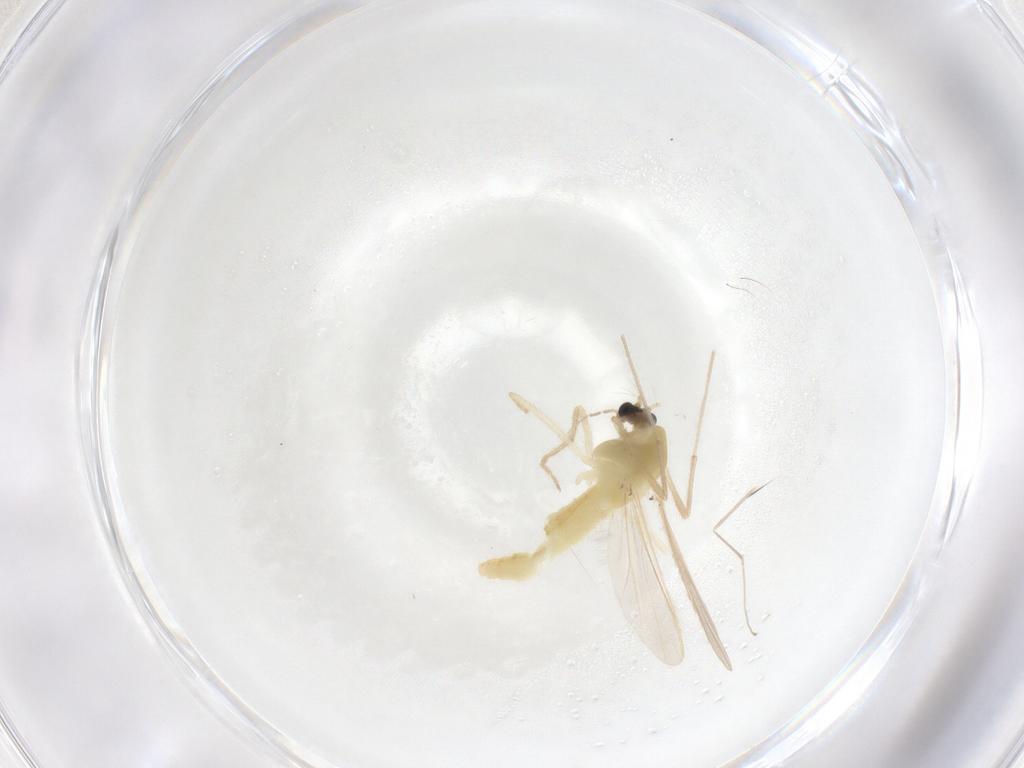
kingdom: Animalia
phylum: Arthropoda
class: Insecta
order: Diptera
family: Chironomidae
